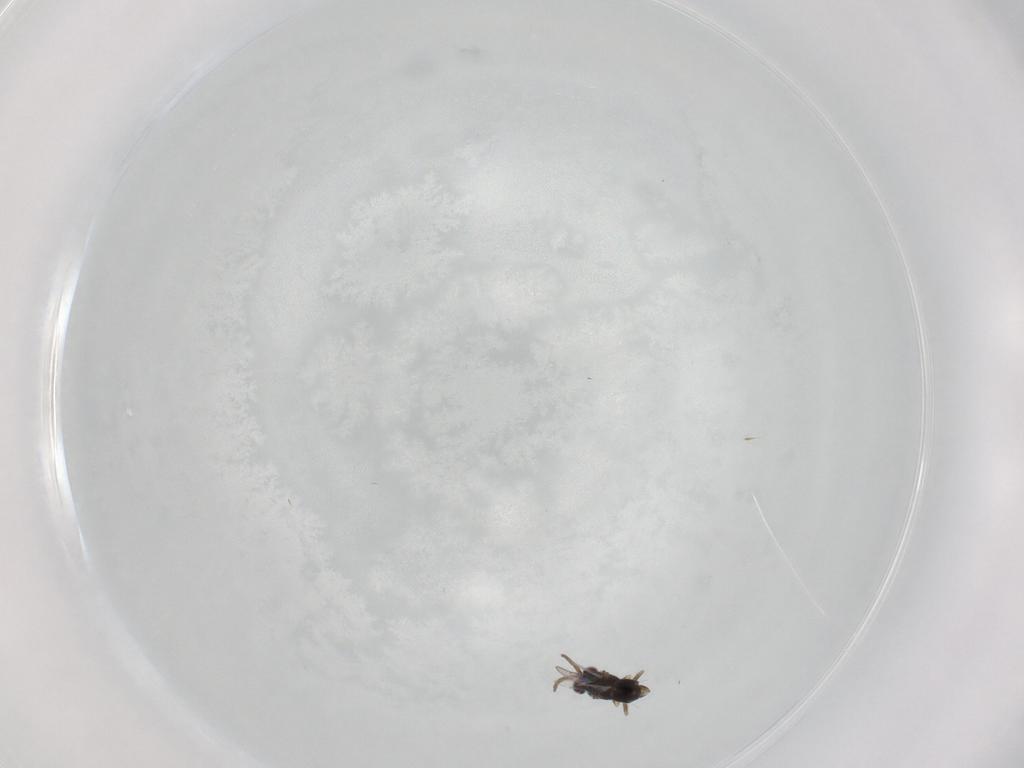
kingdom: Animalia
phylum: Arthropoda
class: Insecta
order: Hymenoptera
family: Aphelinidae
